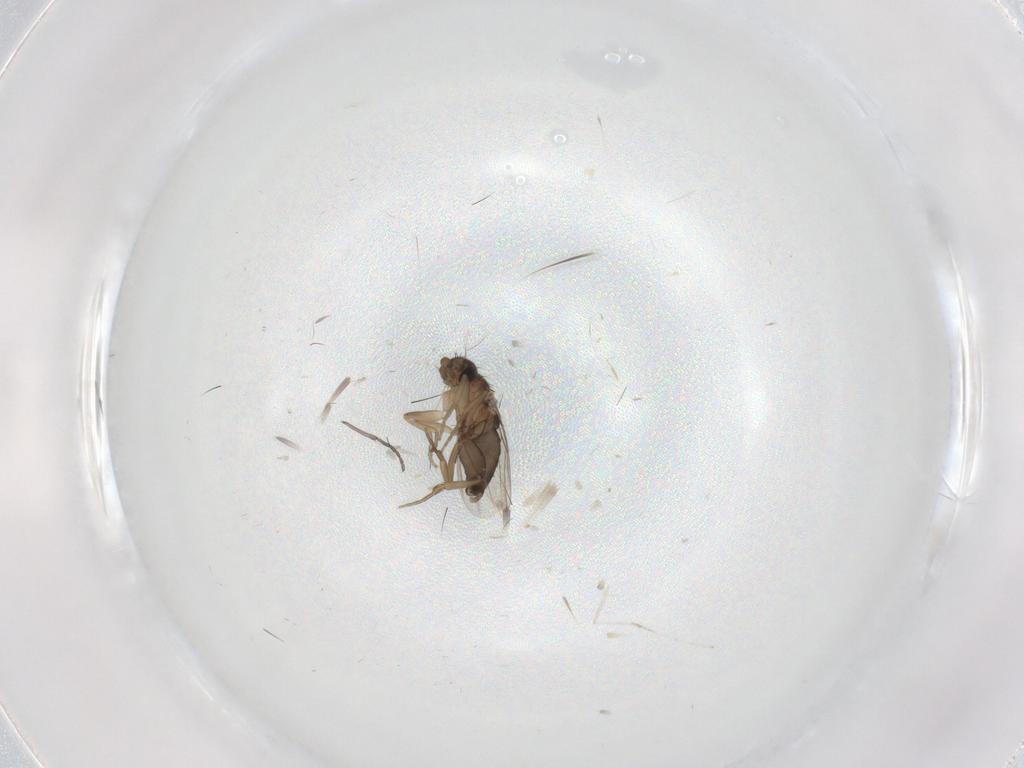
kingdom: Animalia
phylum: Arthropoda
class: Insecta
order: Diptera
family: Phoridae
